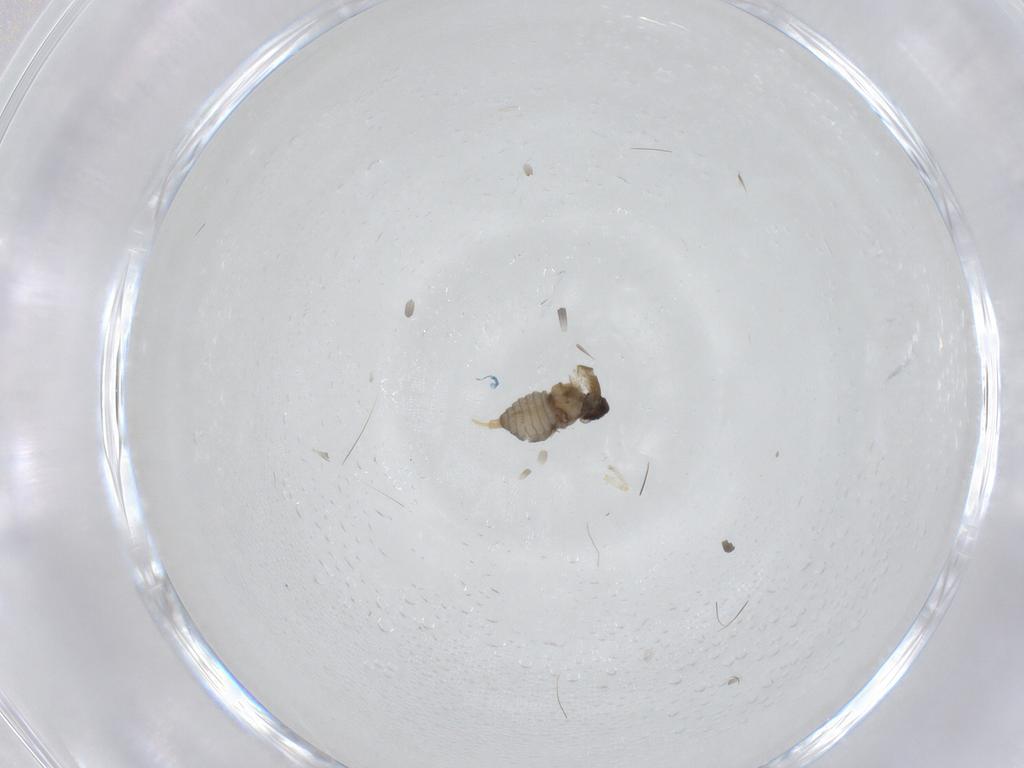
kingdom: Animalia
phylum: Arthropoda
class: Insecta
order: Diptera
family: Cecidomyiidae
